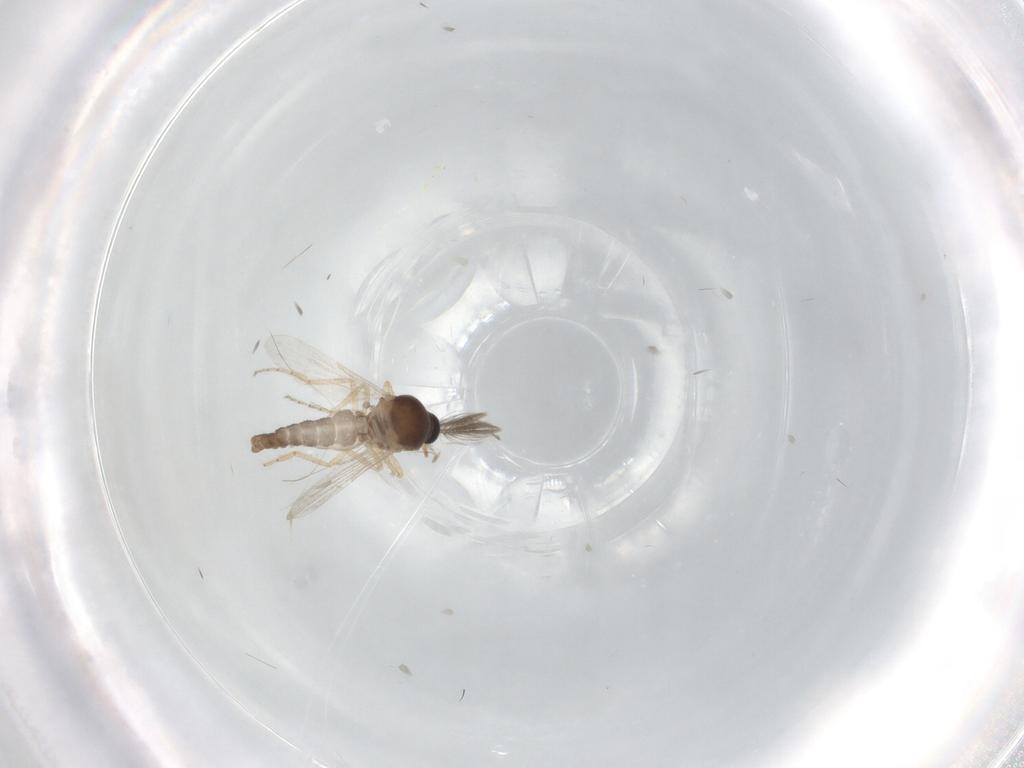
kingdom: Animalia
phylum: Arthropoda
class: Insecta
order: Diptera
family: Ceratopogonidae
